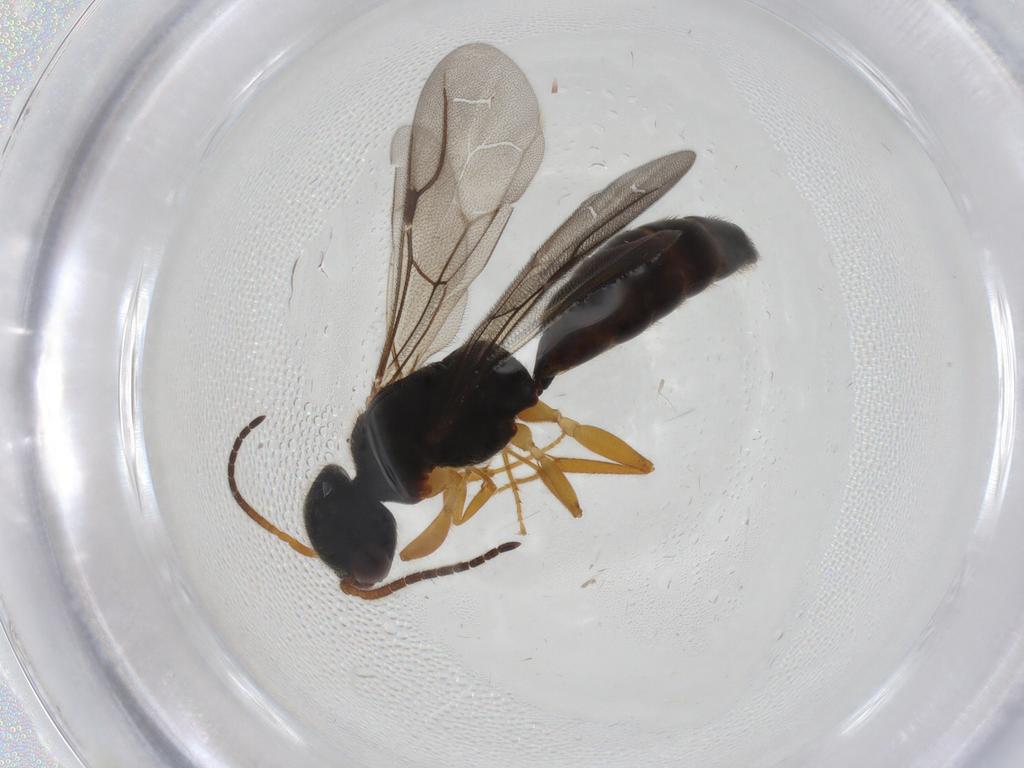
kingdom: Animalia
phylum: Arthropoda
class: Insecta
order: Hymenoptera
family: Bethylidae
